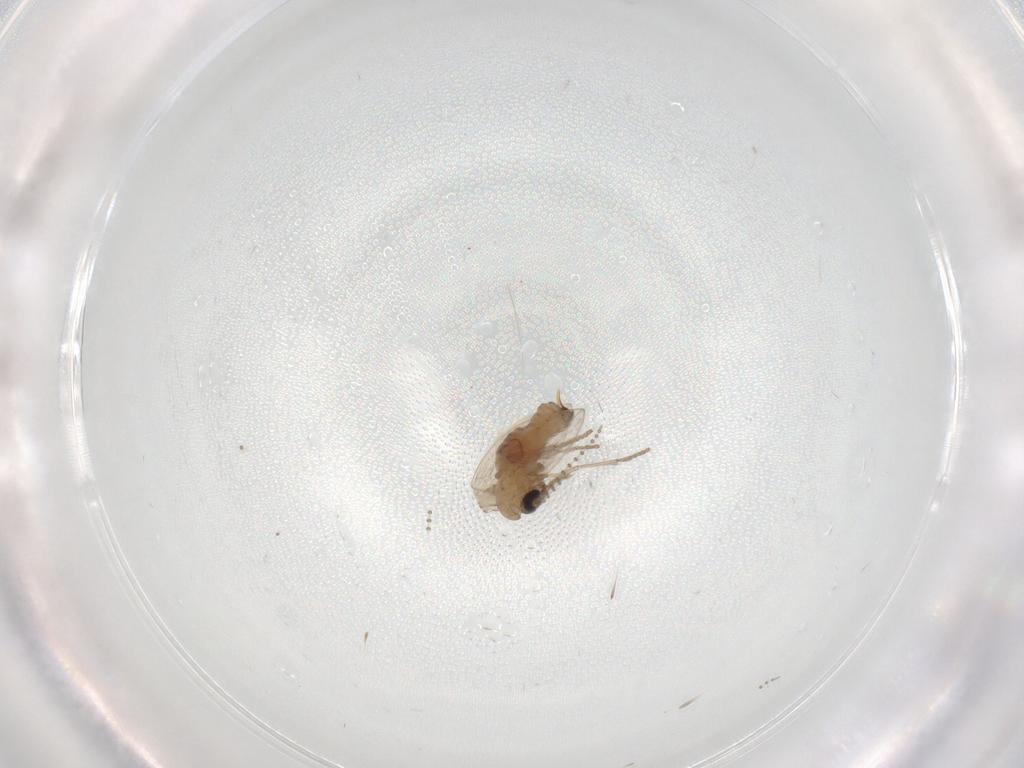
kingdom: Animalia
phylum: Arthropoda
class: Insecta
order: Diptera
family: Psychodidae
